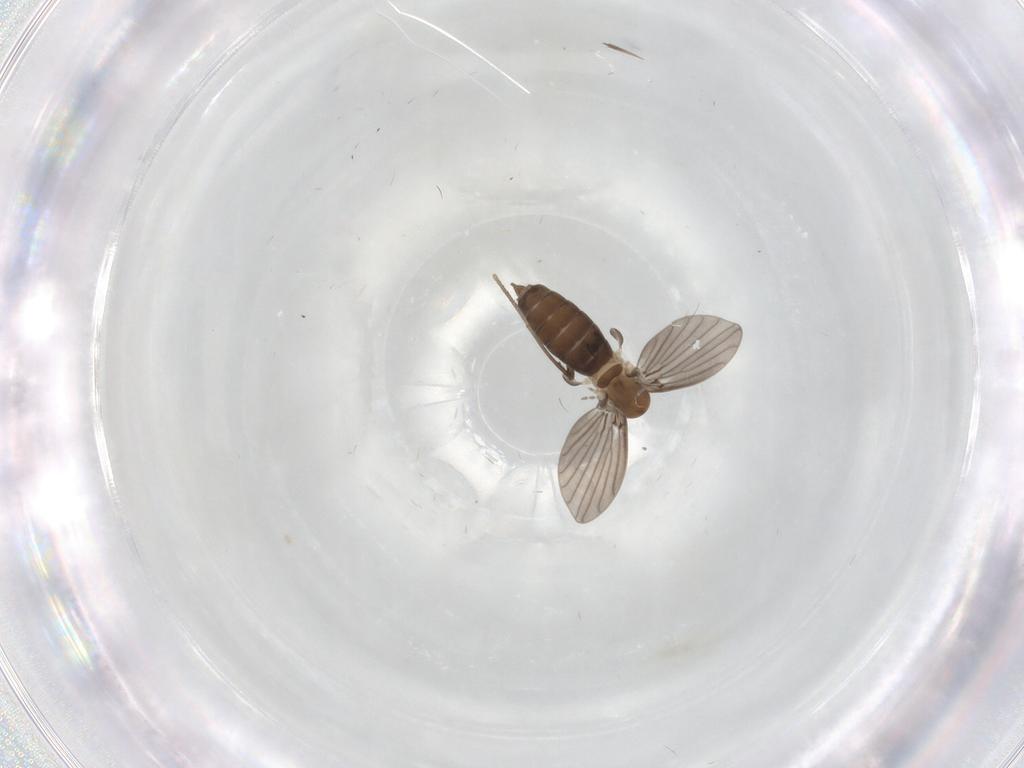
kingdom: Animalia
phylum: Arthropoda
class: Insecta
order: Diptera
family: Cecidomyiidae
